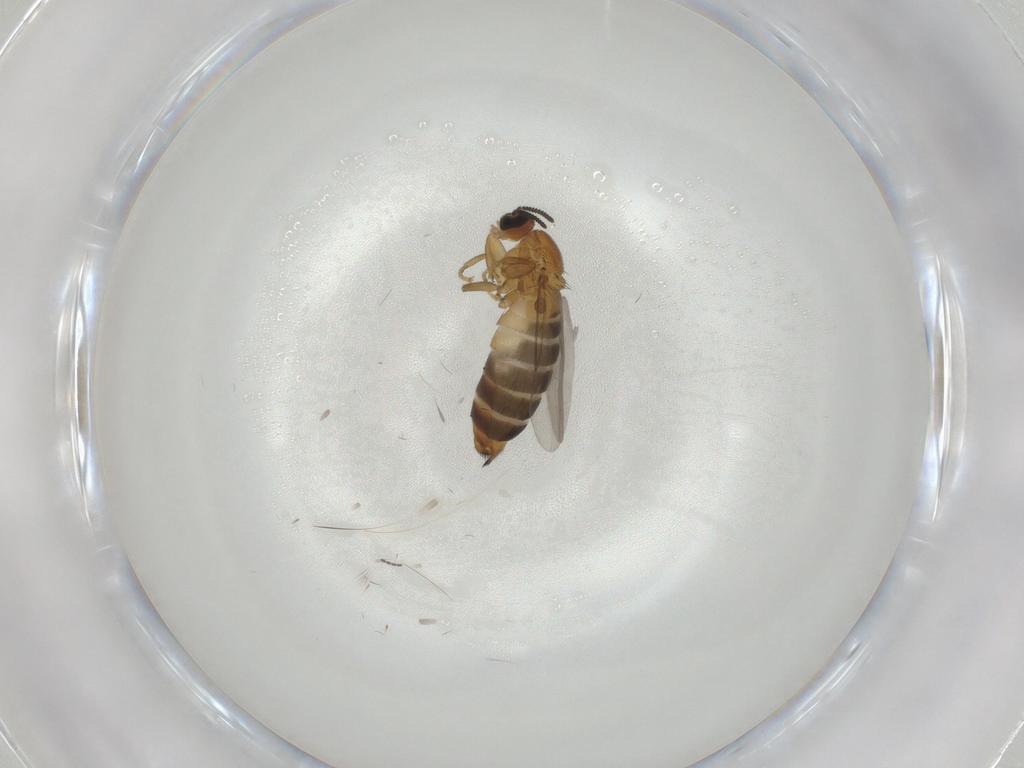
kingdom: Animalia
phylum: Arthropoda
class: Insecta
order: Diptera
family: Scatopsidae
